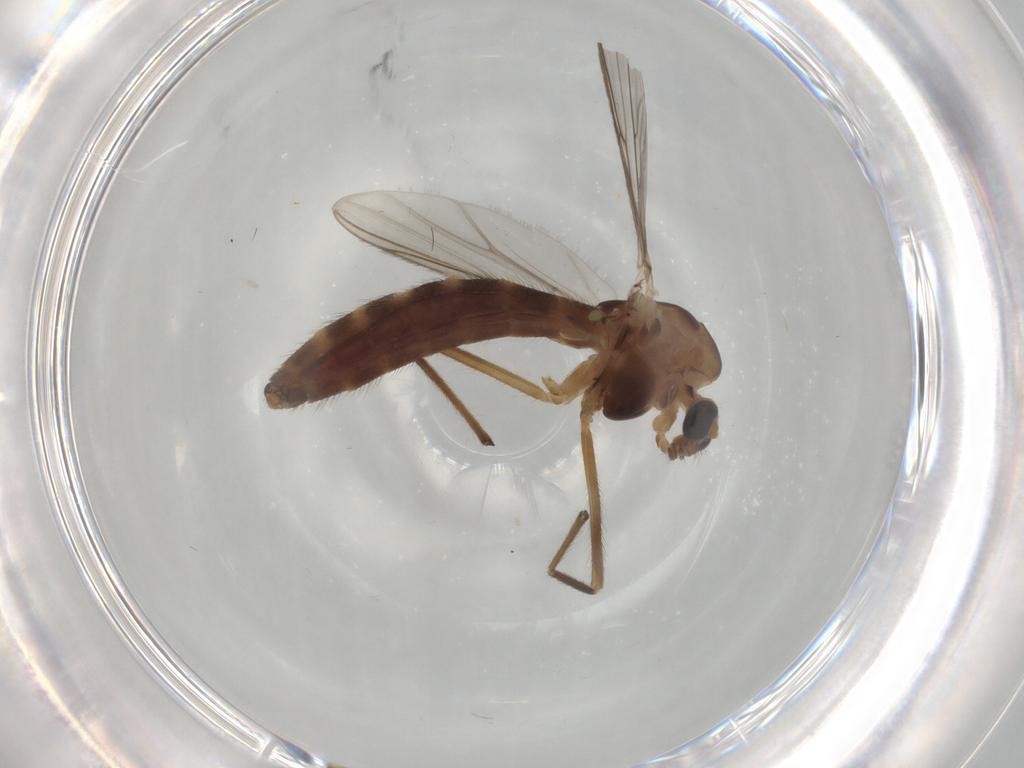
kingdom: Animalia
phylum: Arthropoda
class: Insecta
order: Diptera
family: Chironomidae
